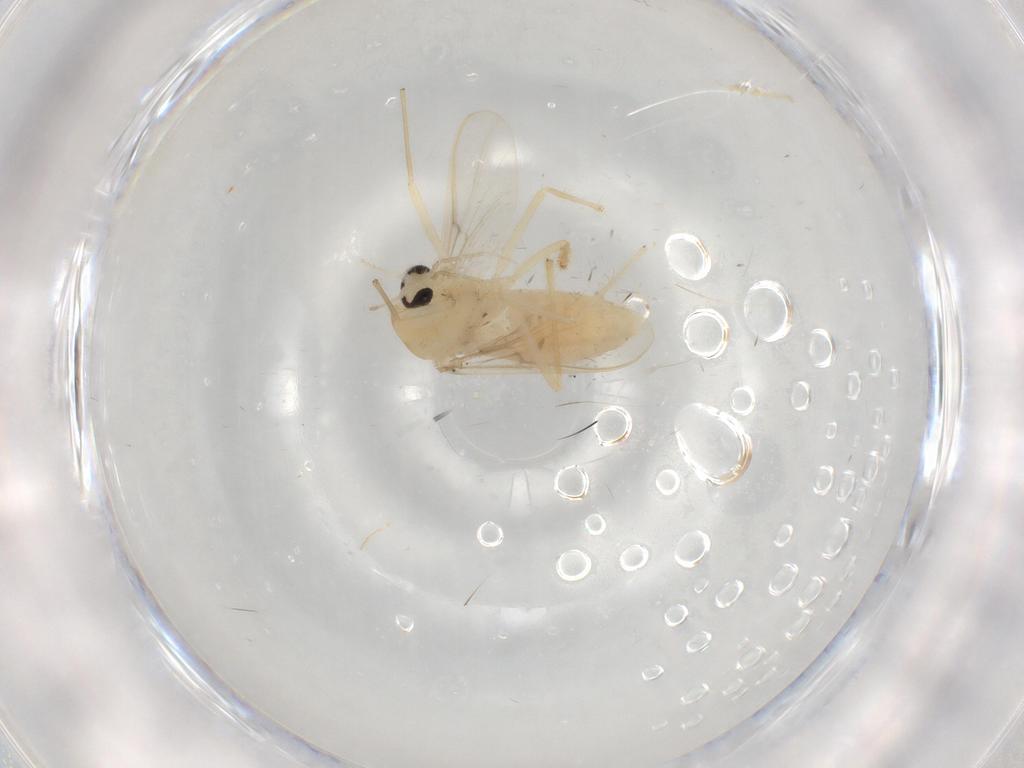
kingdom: Animalia
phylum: Arthropoda
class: Insecta
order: Diptera
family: Chironomidae
